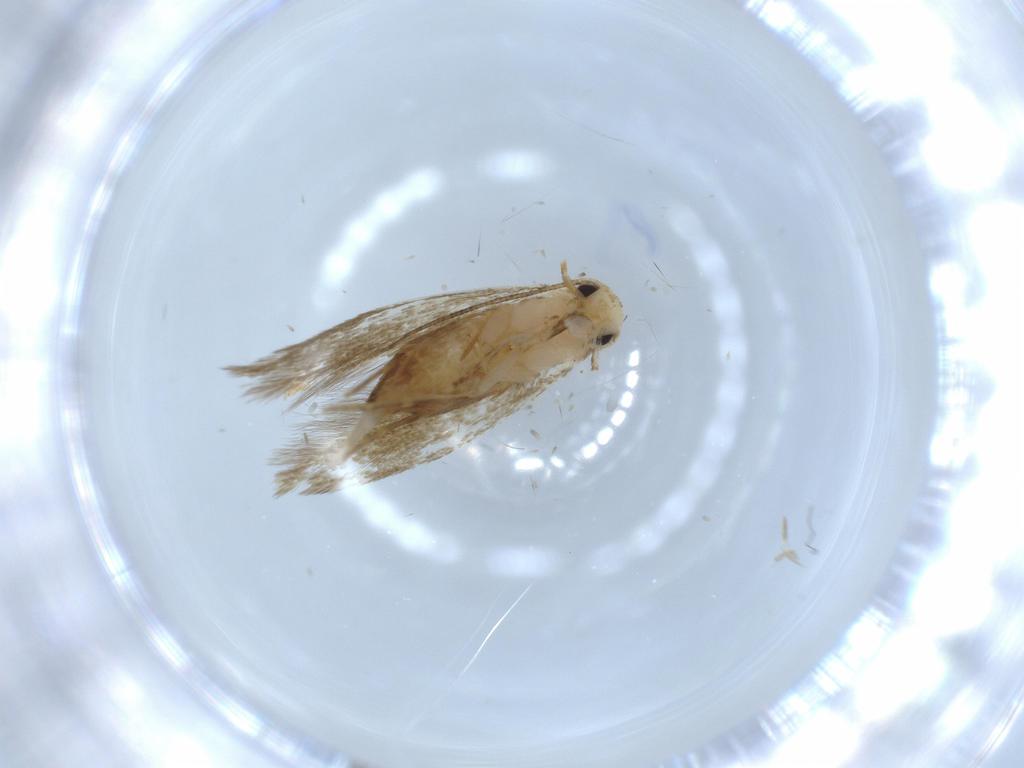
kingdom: Animalia
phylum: Arthropoda
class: Insecta
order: Lepidoptera
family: Tineidae
